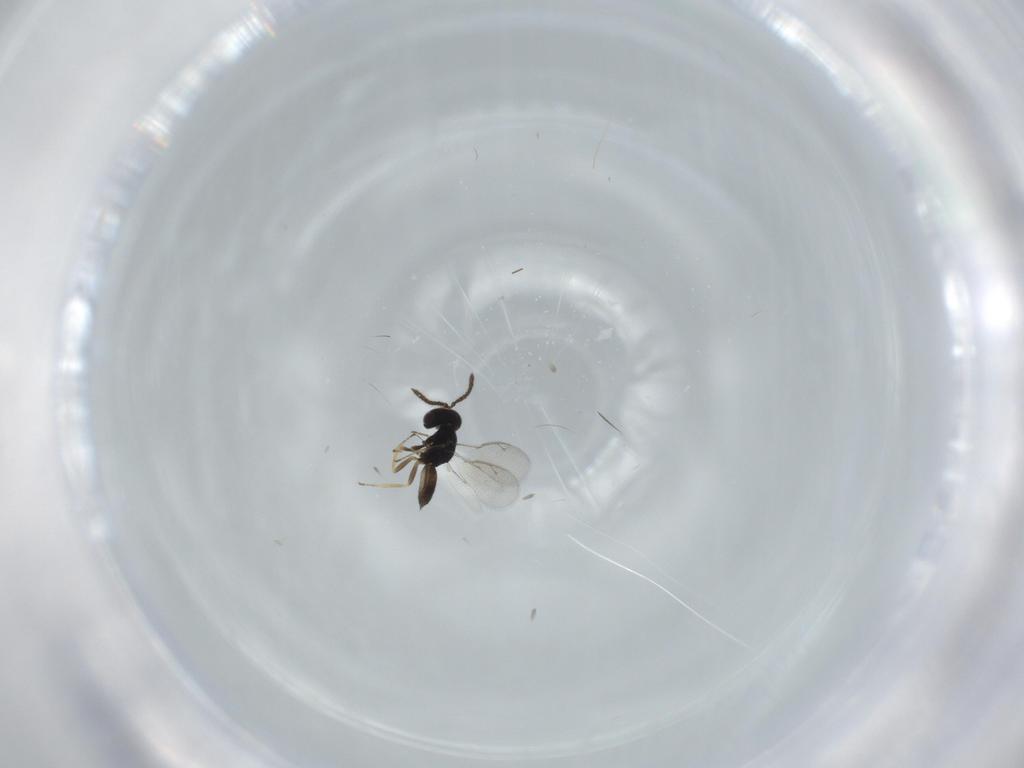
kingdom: Animalia
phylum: Arthropoda
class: Insecta
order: Hymenoptera
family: Pteromalidae
